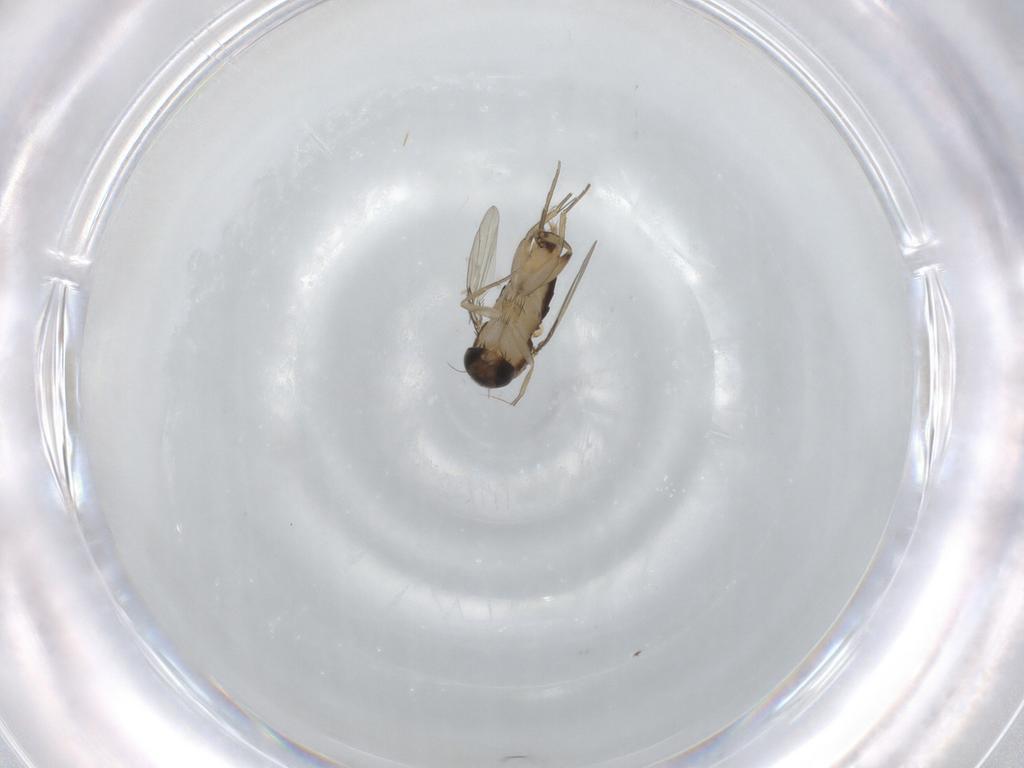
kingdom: Animalia
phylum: Arthropoda
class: Insecta
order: Diptera
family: Phoridae
